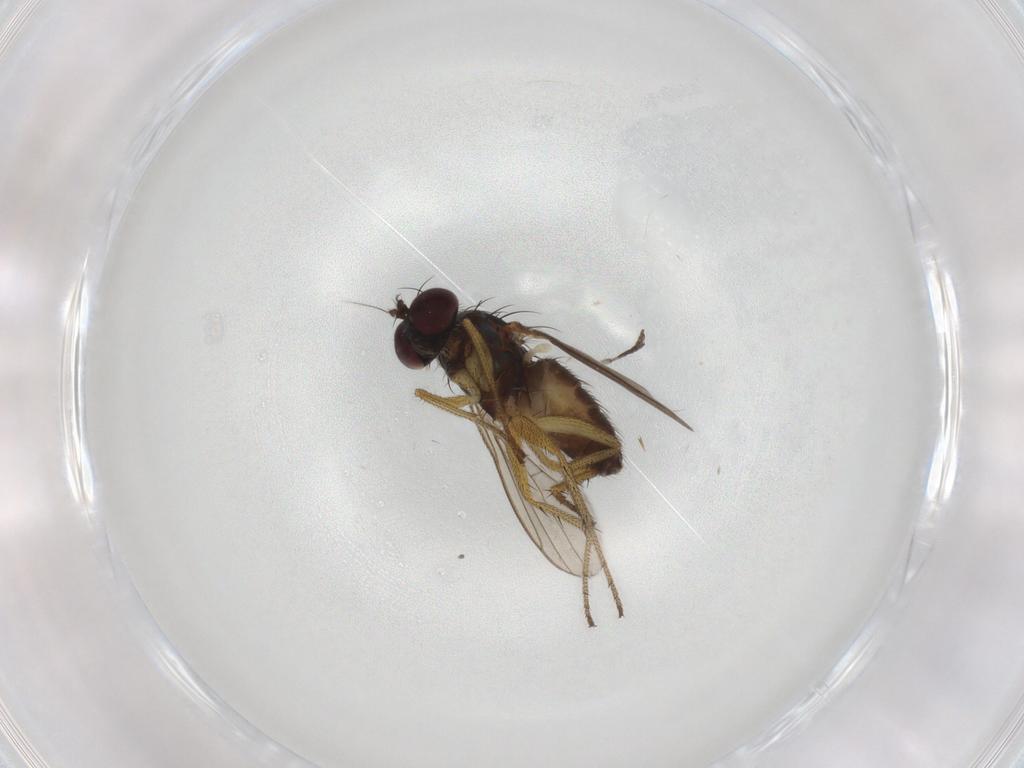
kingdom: Animalia
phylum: Arthropoda
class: Insecta
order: Diptera
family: Dolichopodidae
